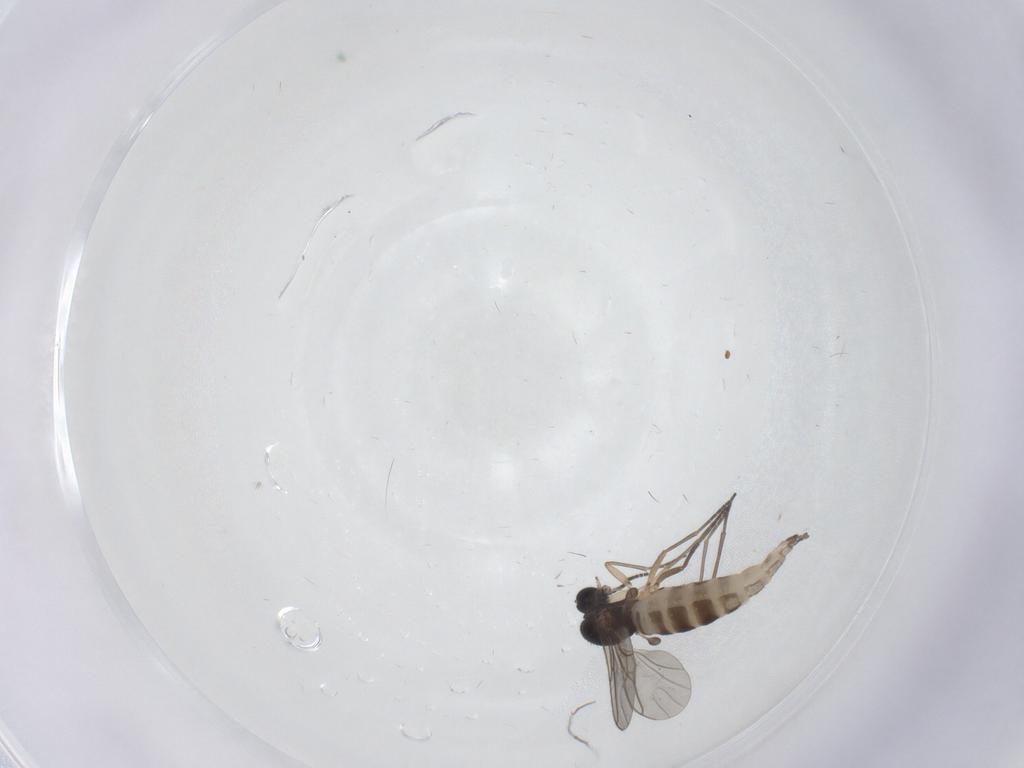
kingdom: Animalia
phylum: Arthropoda
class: Insecta
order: Diptera
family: Sciaridae
